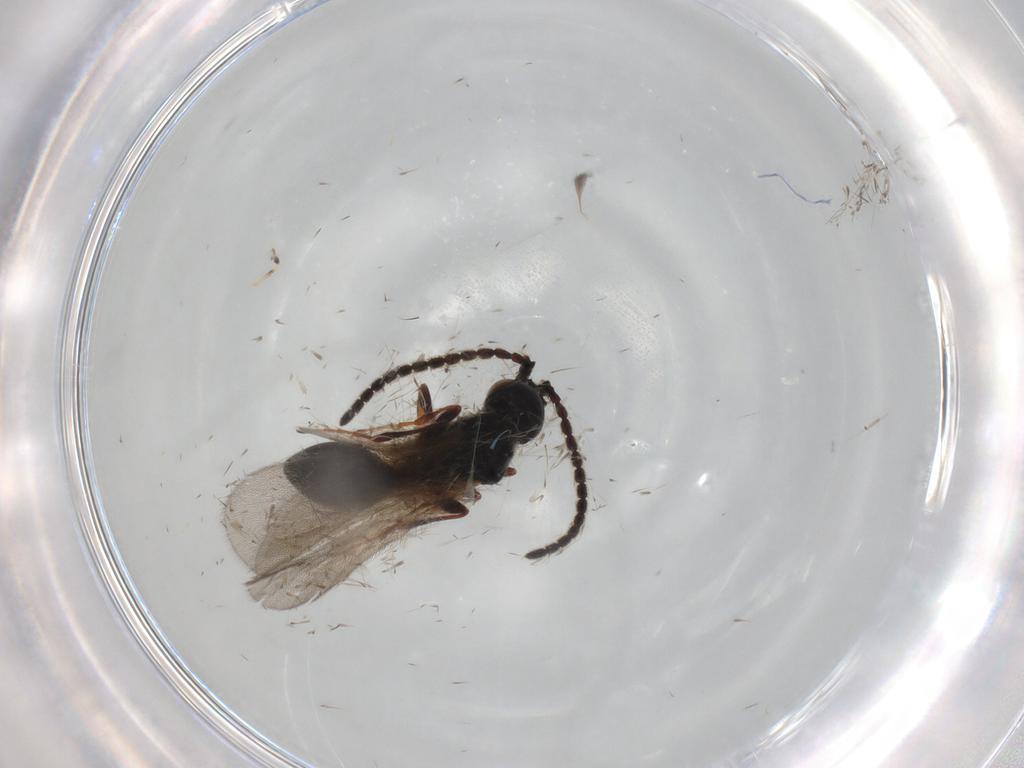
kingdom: Animalia
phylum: Arthropoda
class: Insecta
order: Hymenoptera
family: Diapriidae
